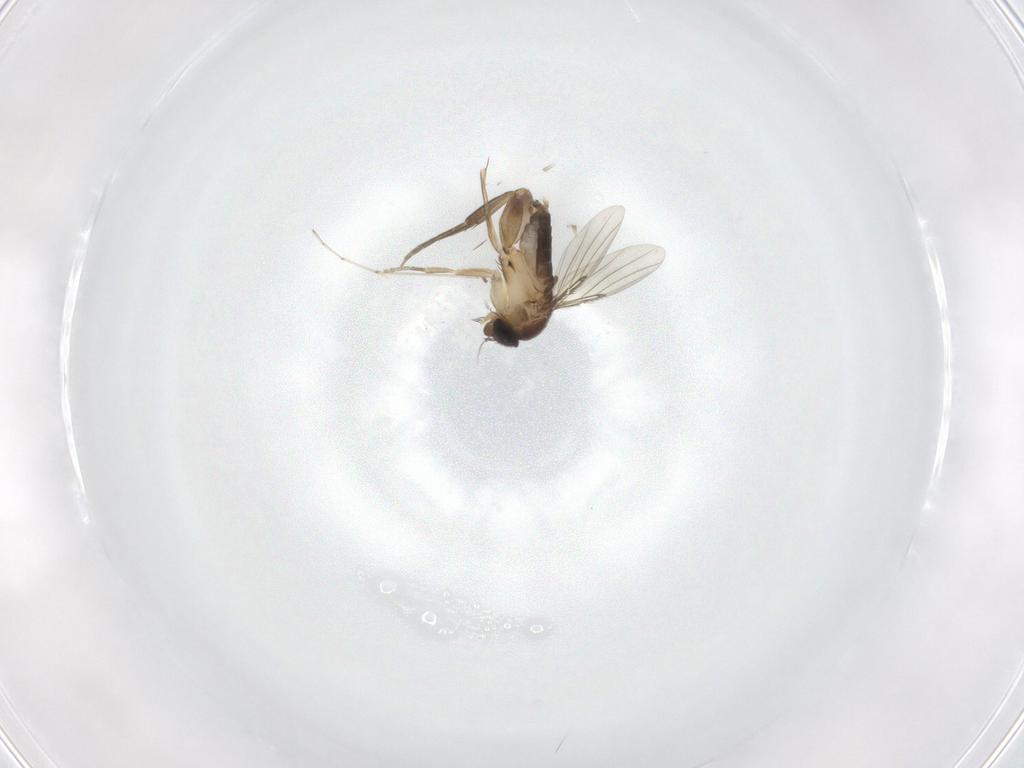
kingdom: Animalia
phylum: Arthropoda
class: Insecta
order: Diptera
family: Phoridae
